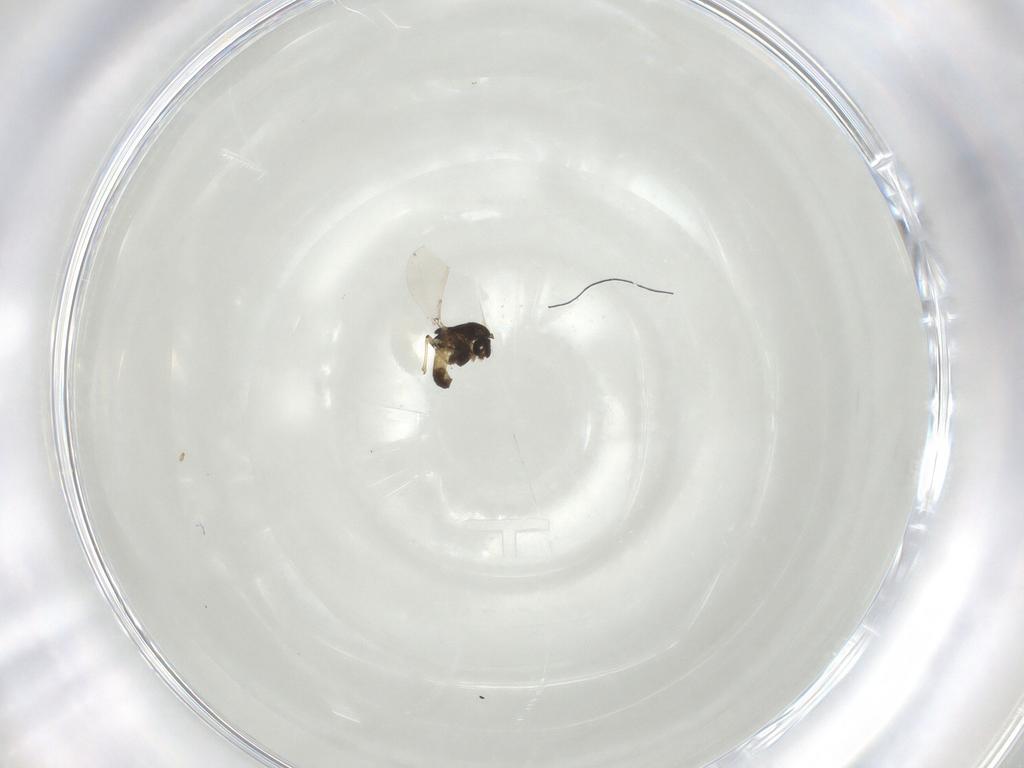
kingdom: Animalia
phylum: Arthropoda
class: Insecta
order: Diptera
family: Chironomidae
